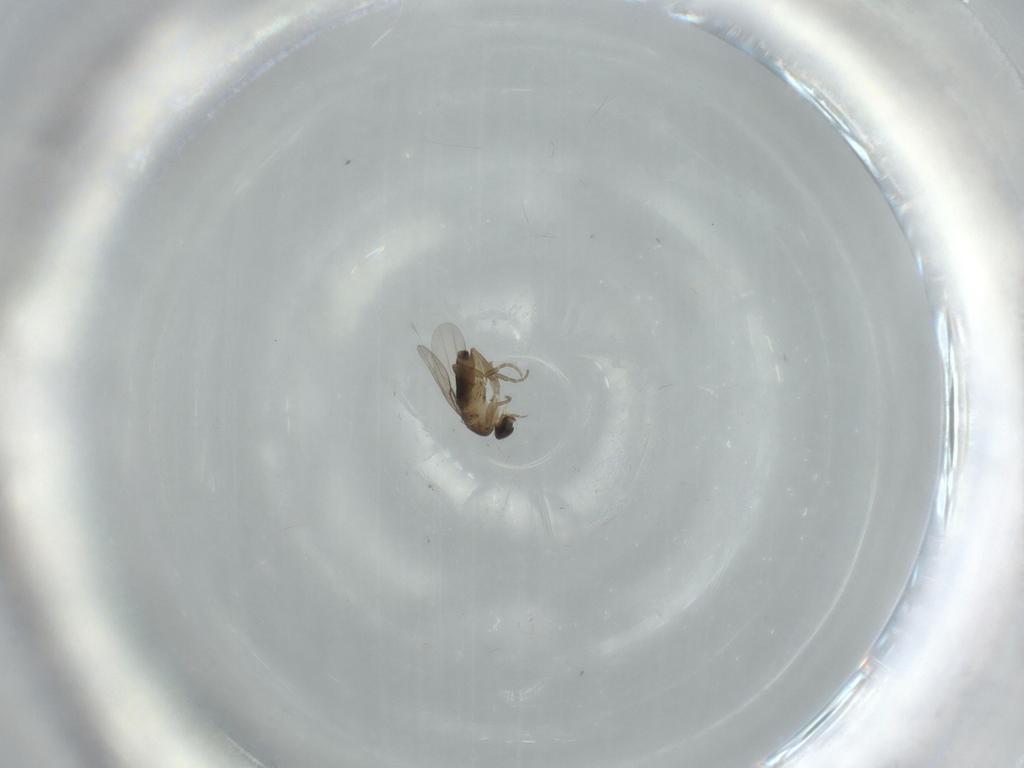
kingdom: Animalia
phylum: Arthropoda
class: Insecta
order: Diptera
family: Phoridae
